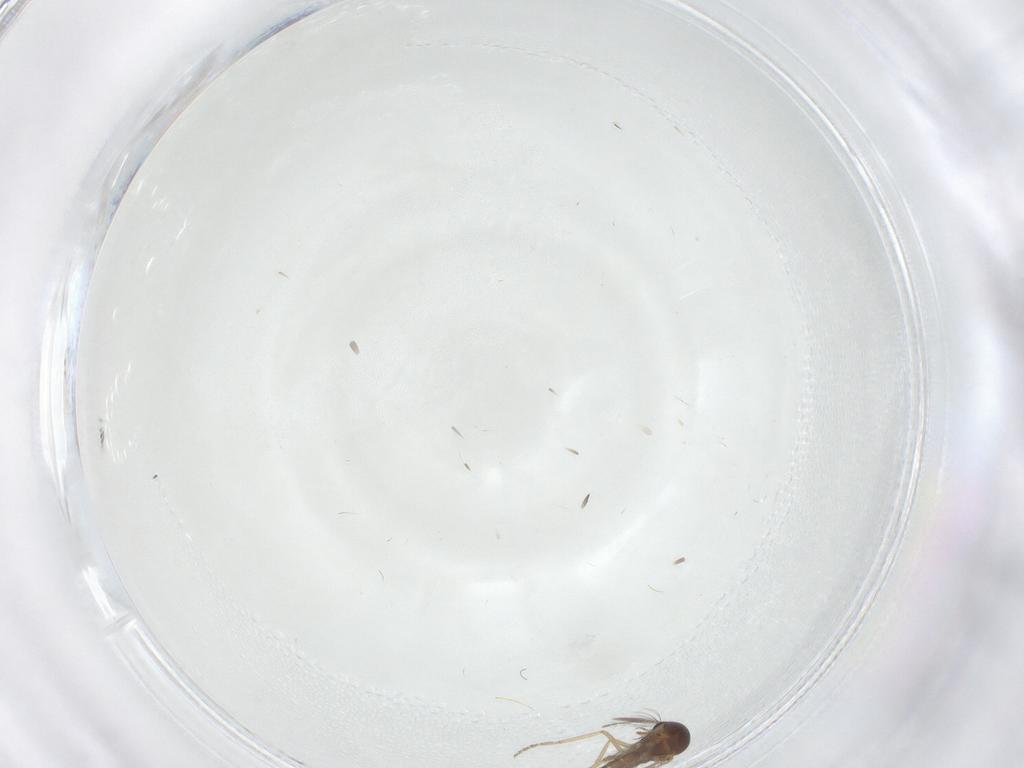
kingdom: Animalia
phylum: Arthropoda
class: Insecta
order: Diptera
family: Ceratopogonidae
